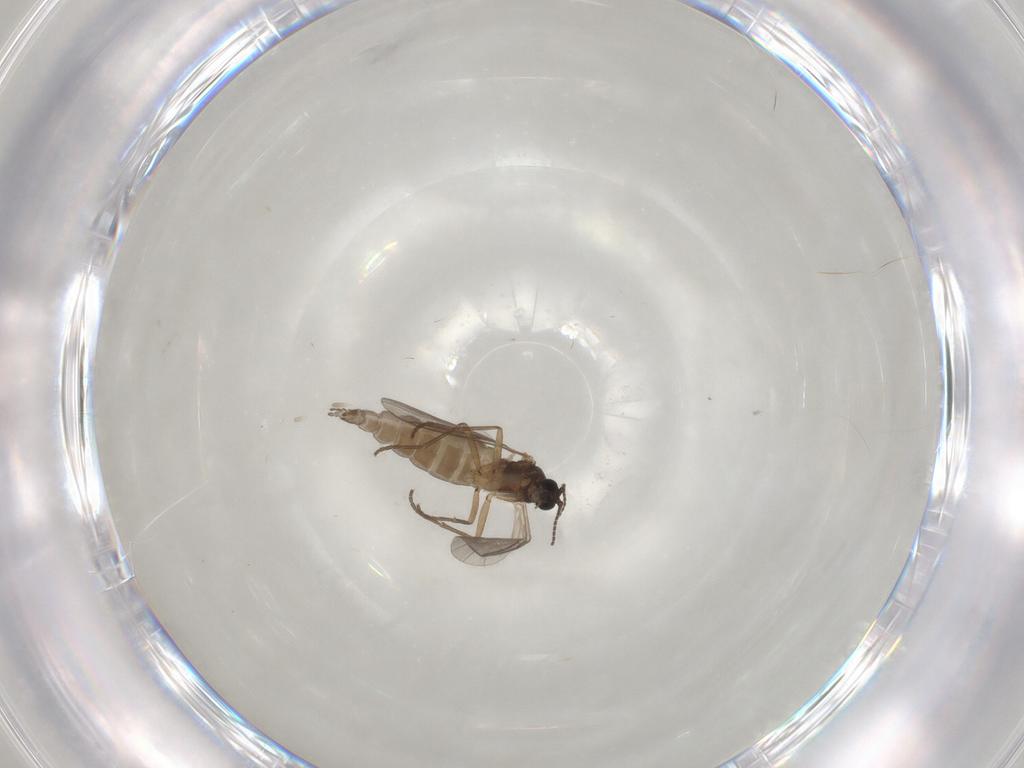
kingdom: Animalia
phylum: Arthropoda
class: Insecta
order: Diptera
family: Sciaridae
